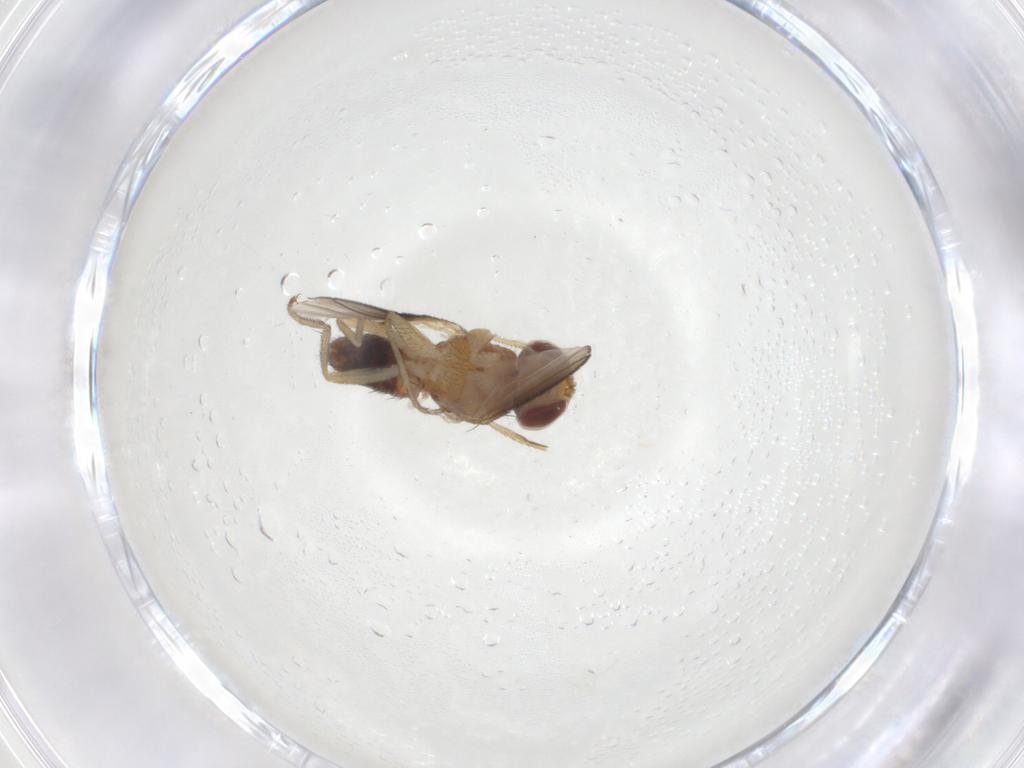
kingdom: Animalia
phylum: Arthropoda
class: Insecta
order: Diptera
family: Heleomyzidae
